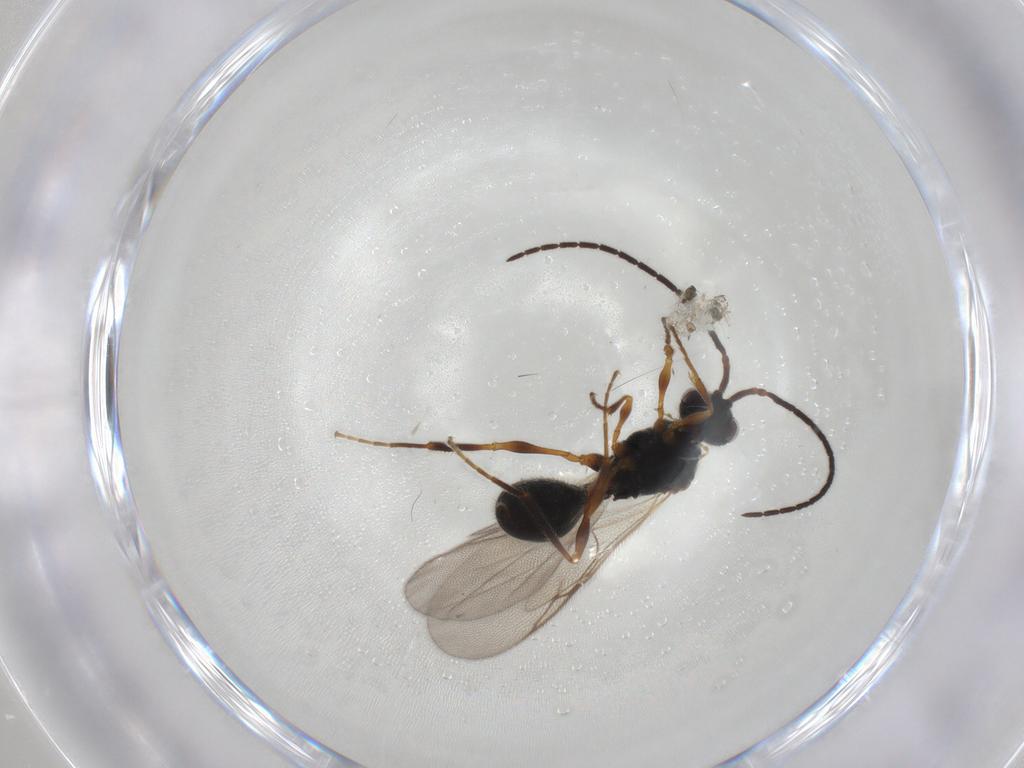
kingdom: Animalia
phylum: Arthropoda
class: Insecta
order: Hymenoptera
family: Diapriidae
